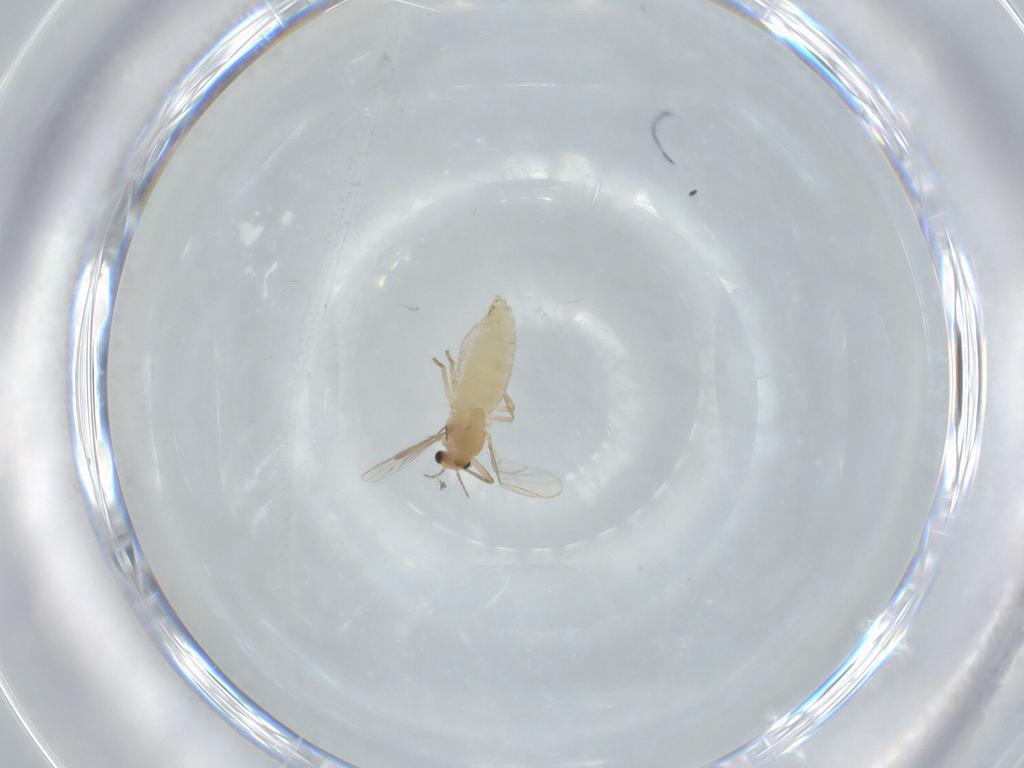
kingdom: Animalia
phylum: Arthropoda
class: Insecta
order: Diptera
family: Chironomidae
